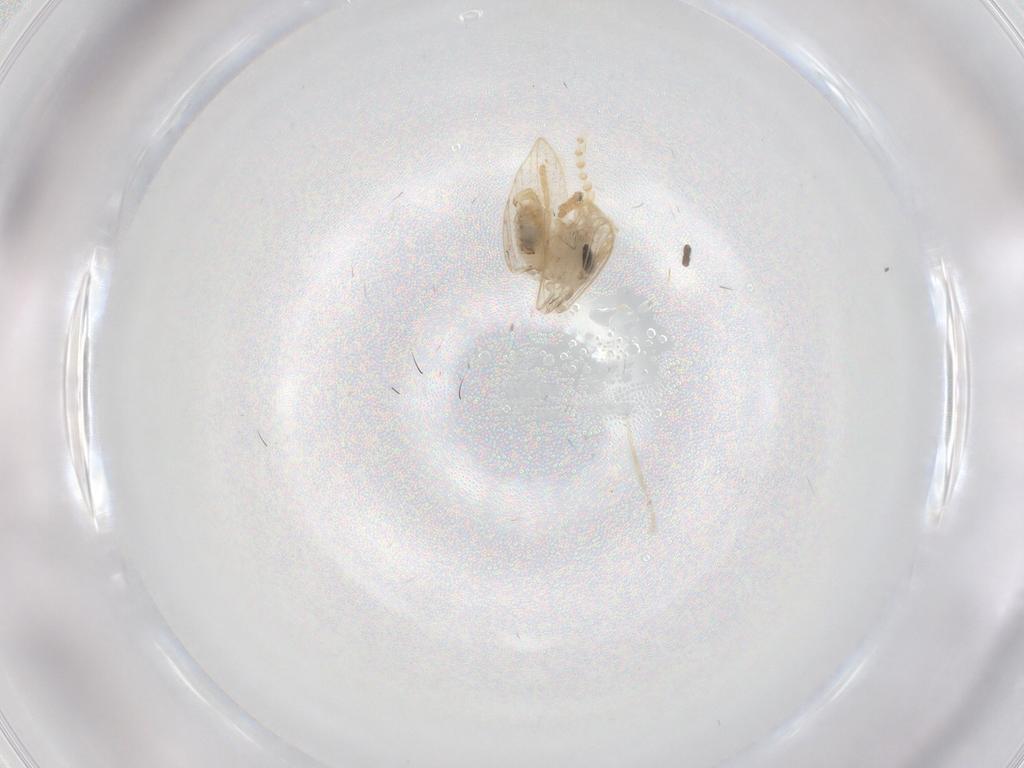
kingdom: Animalia
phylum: Arthropoda
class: Insecta
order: Diptera
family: Psychodidae
